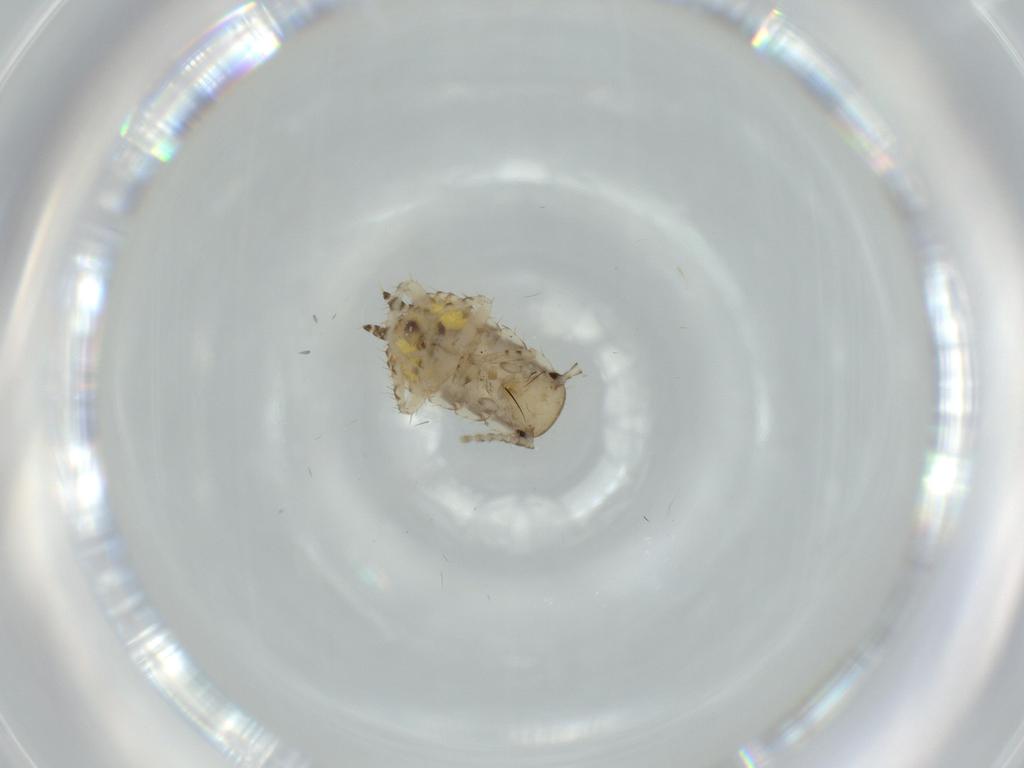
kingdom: Animalia
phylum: Arthropoda
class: Insecta
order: Blattodea
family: Ectobiidae
